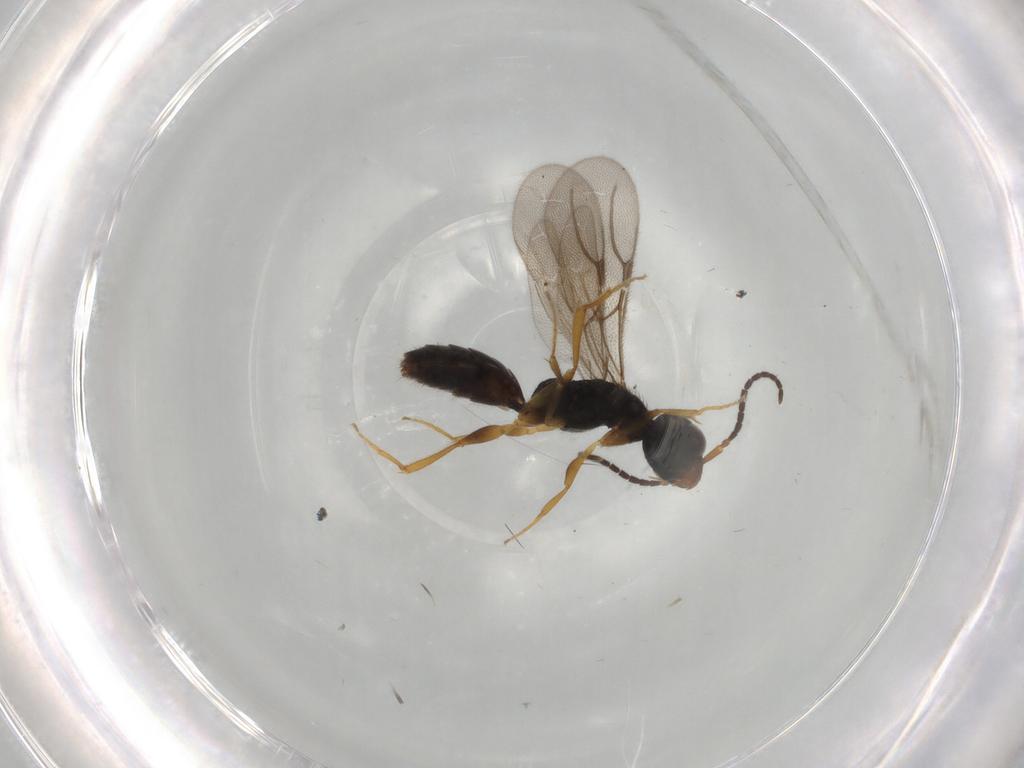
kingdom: Animalia
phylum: Arthropoda
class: Insecta
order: Hymenoptera
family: Bethylidae
